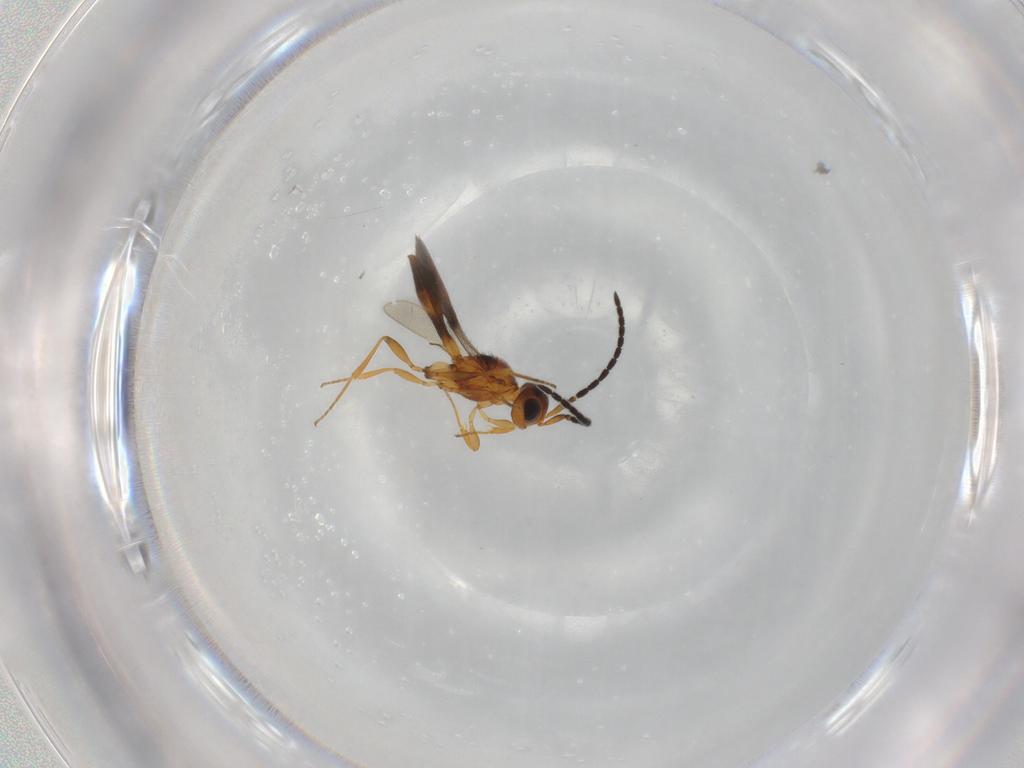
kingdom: Animalia
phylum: Arthropoda
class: Insecta
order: Hymenoptera
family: Scelionidae
